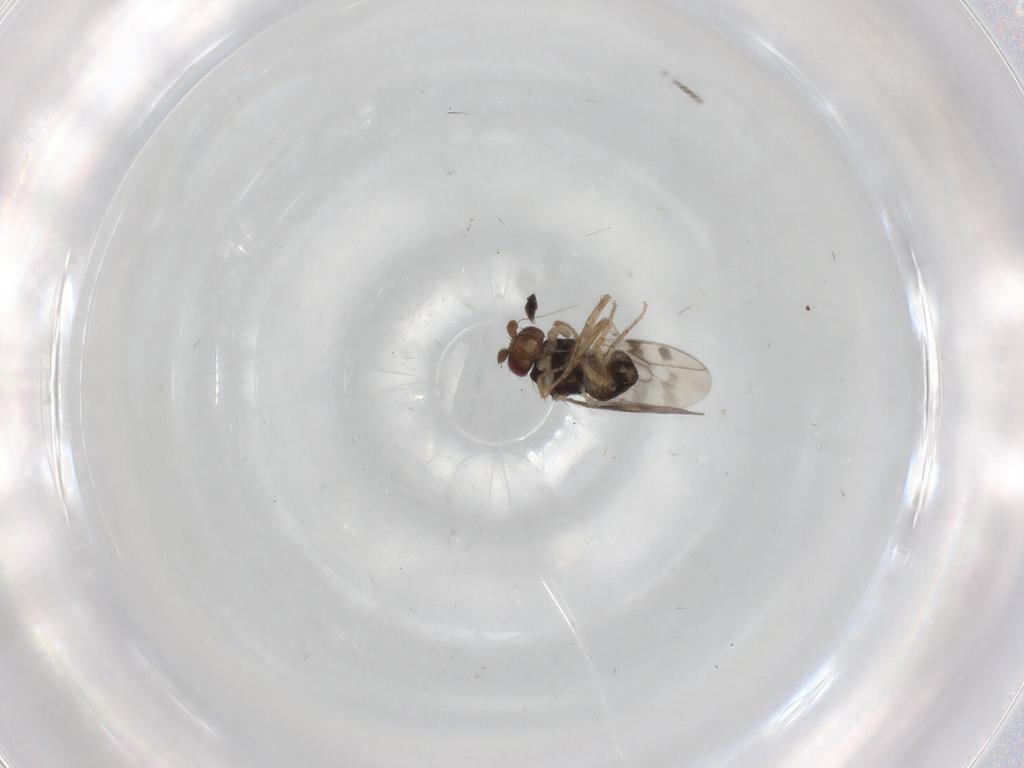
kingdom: Animalia
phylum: Arthropoda
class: Insecta
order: Diptera
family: Sphaeroceridae
